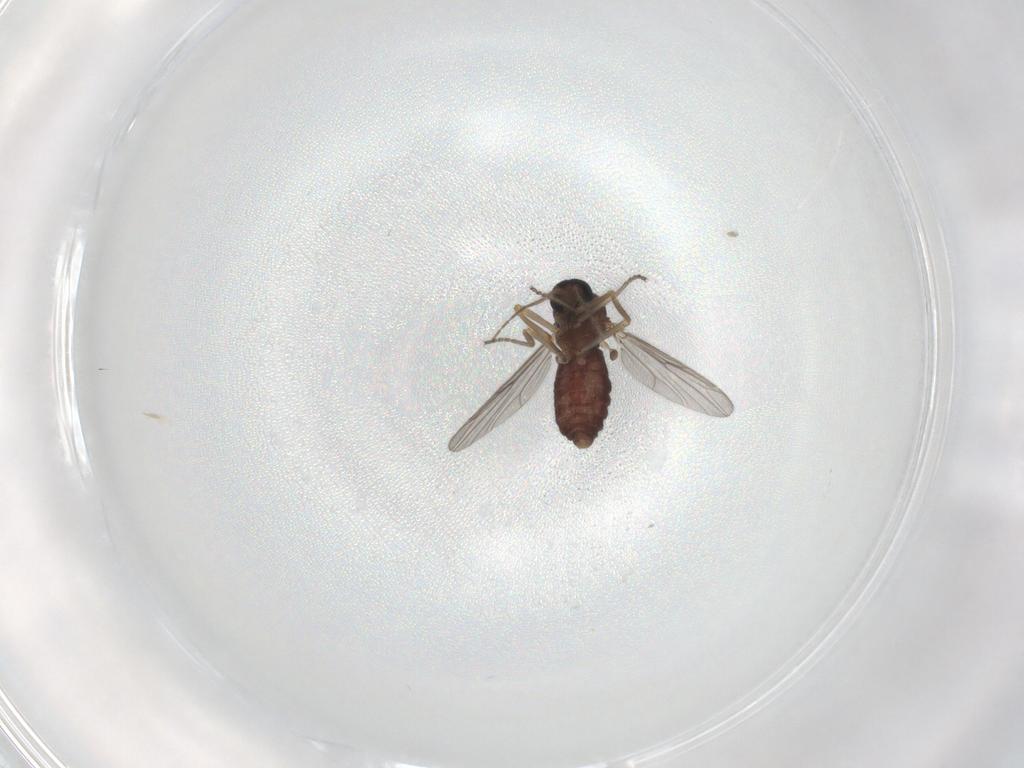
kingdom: Animalia
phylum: Arthropoda
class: Insecta
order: Diptera
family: Ceratopogonidae
